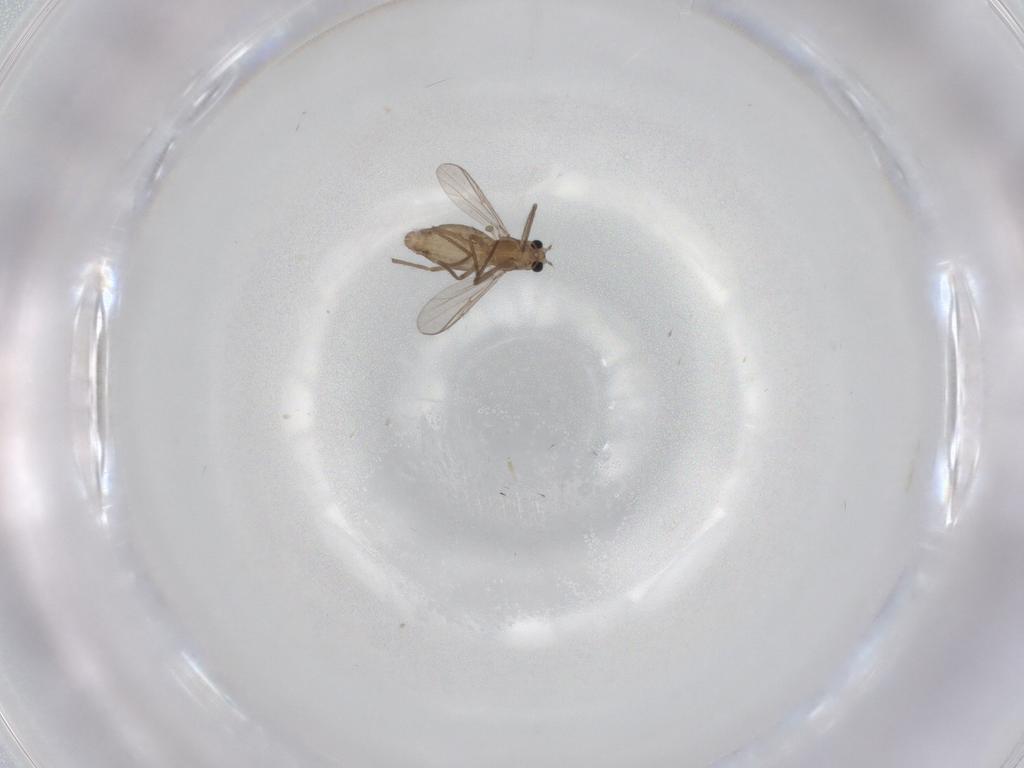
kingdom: Animalia
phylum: Arthropoda
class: Insecta
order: Diptera
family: Chironomidae
